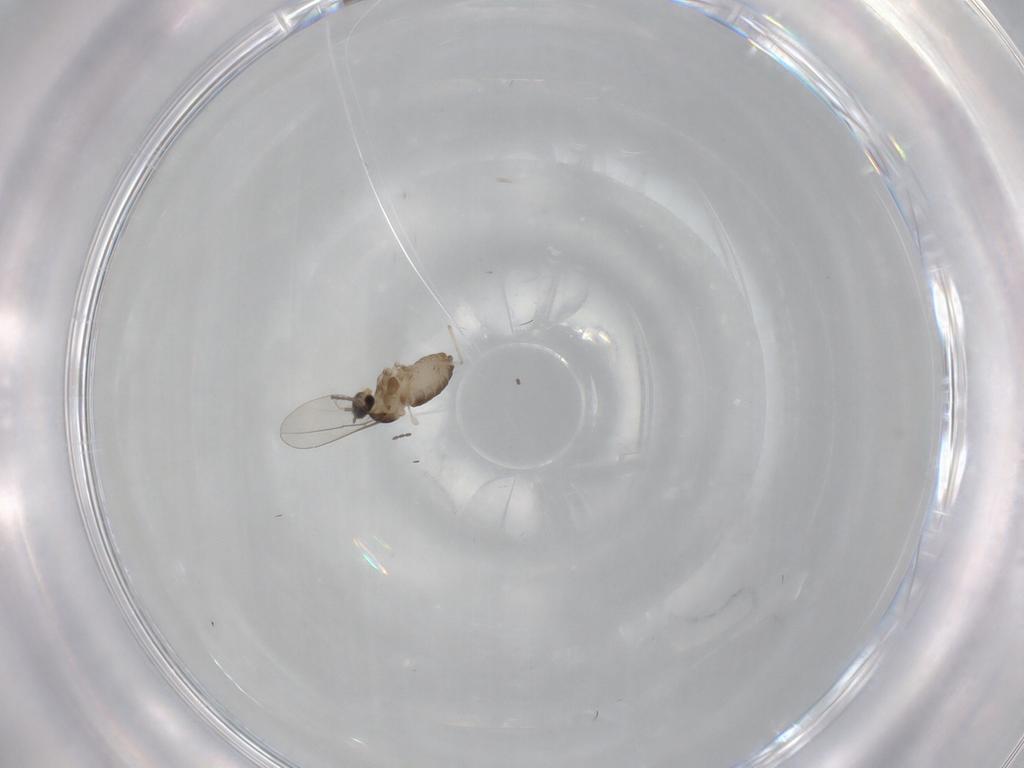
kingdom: Animalia
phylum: Arthropoda
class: Insecta
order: Diptera
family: Cecidomyiidae
